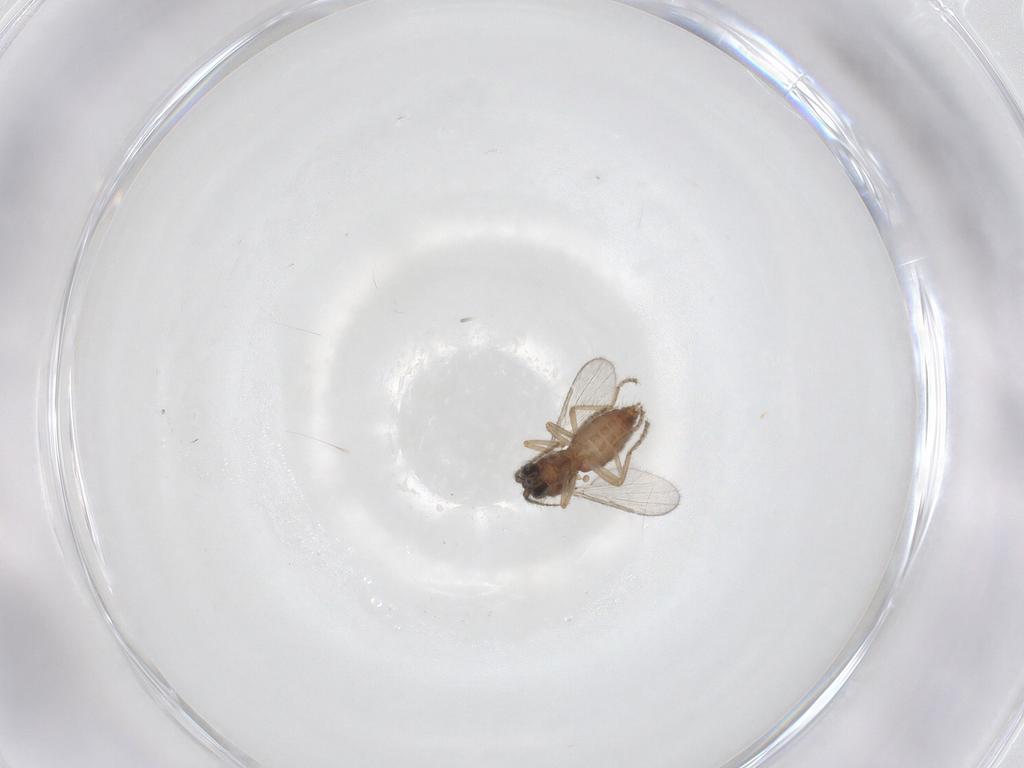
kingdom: Animalia
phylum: Arthropoda
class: Insecta
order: Diptera
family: Ceratopogonidae
